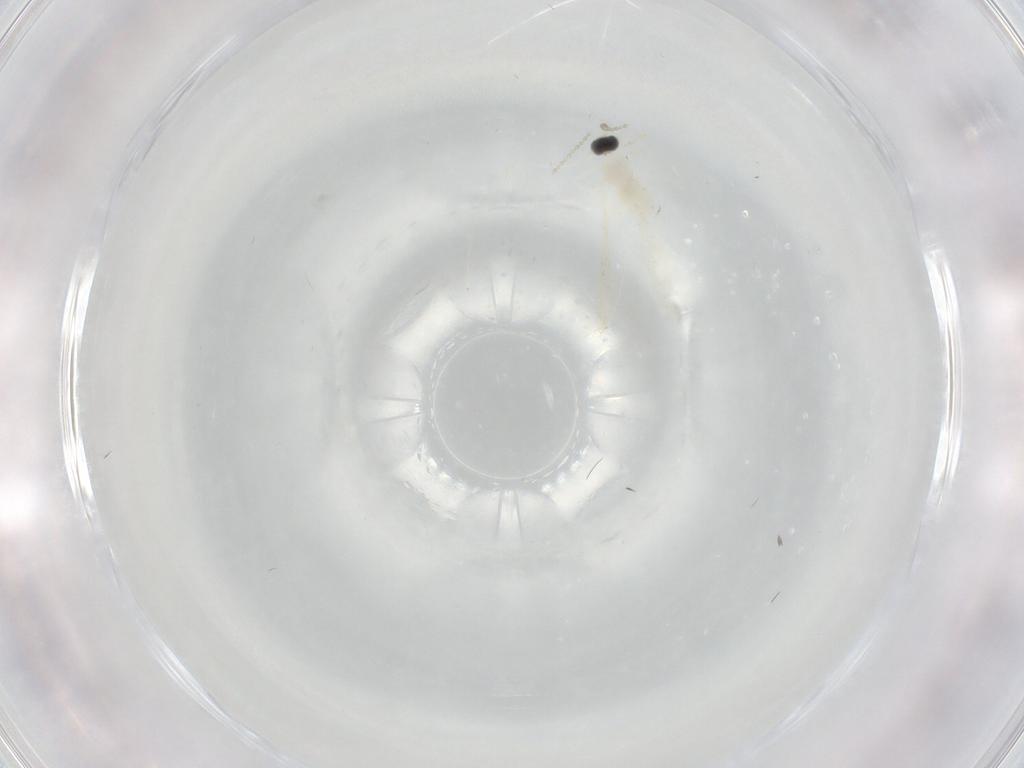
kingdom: Animalia
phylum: Arthropoda
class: Insecta
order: Diptera
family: Cecidomyiidae
